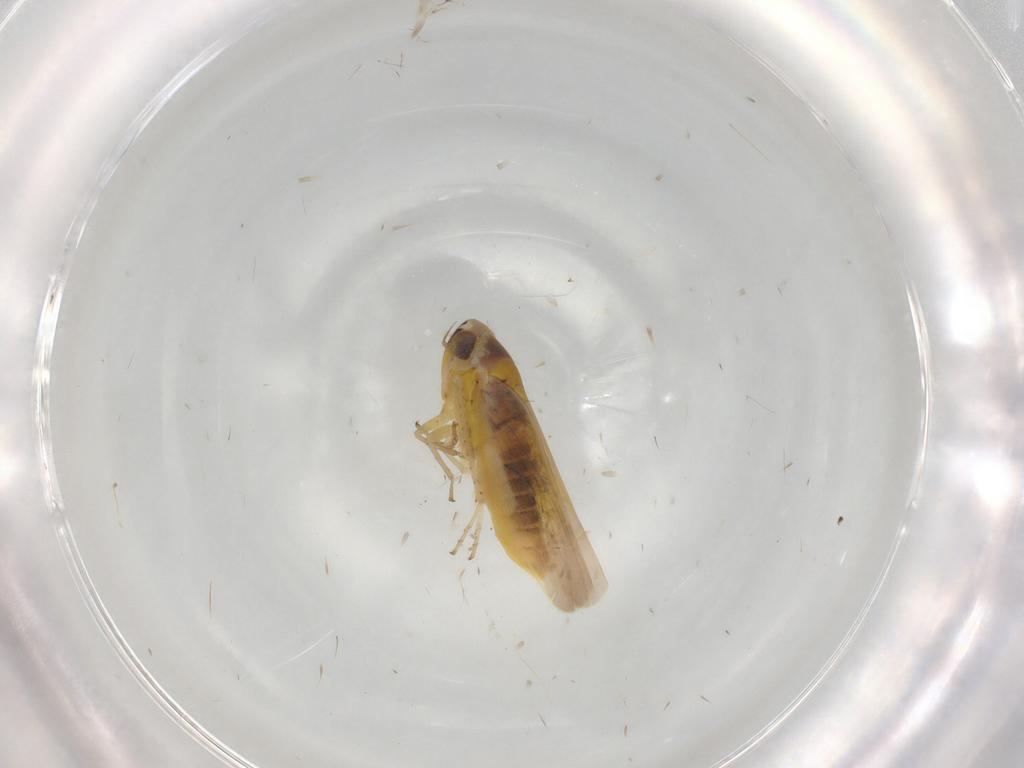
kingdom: Animalia
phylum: Arthropoda
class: Insecta
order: Hemiptera
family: Cicadellidae
